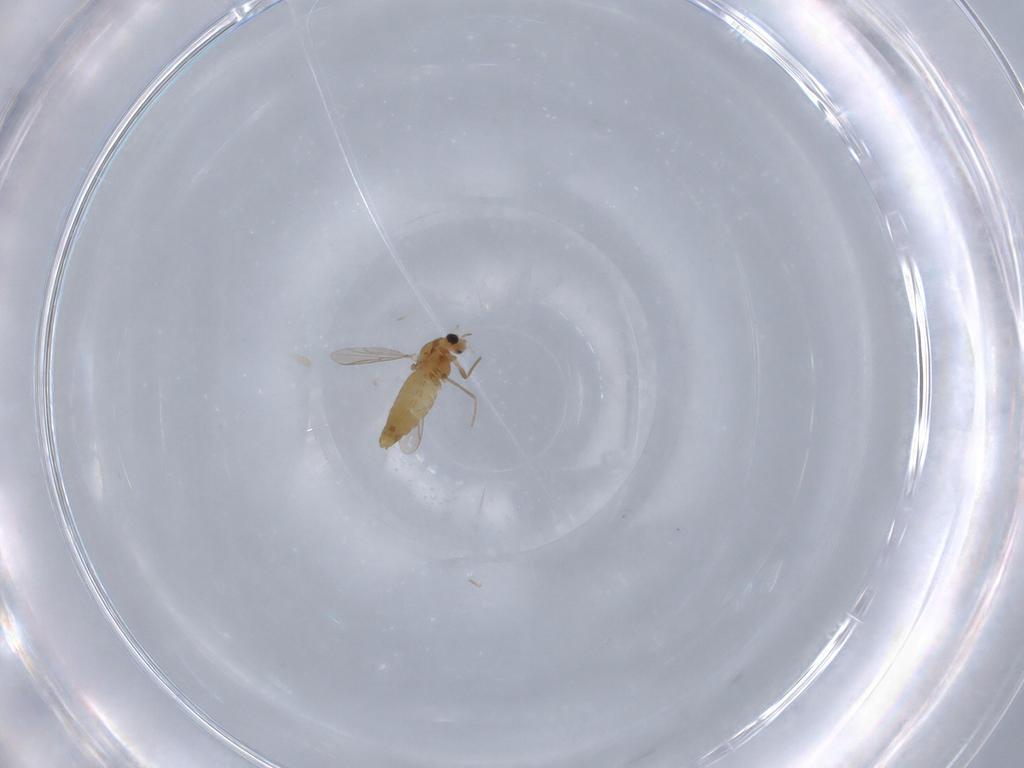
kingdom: Animalia
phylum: Arthropoda
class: Insecta
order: Diptera
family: Chironomidae
